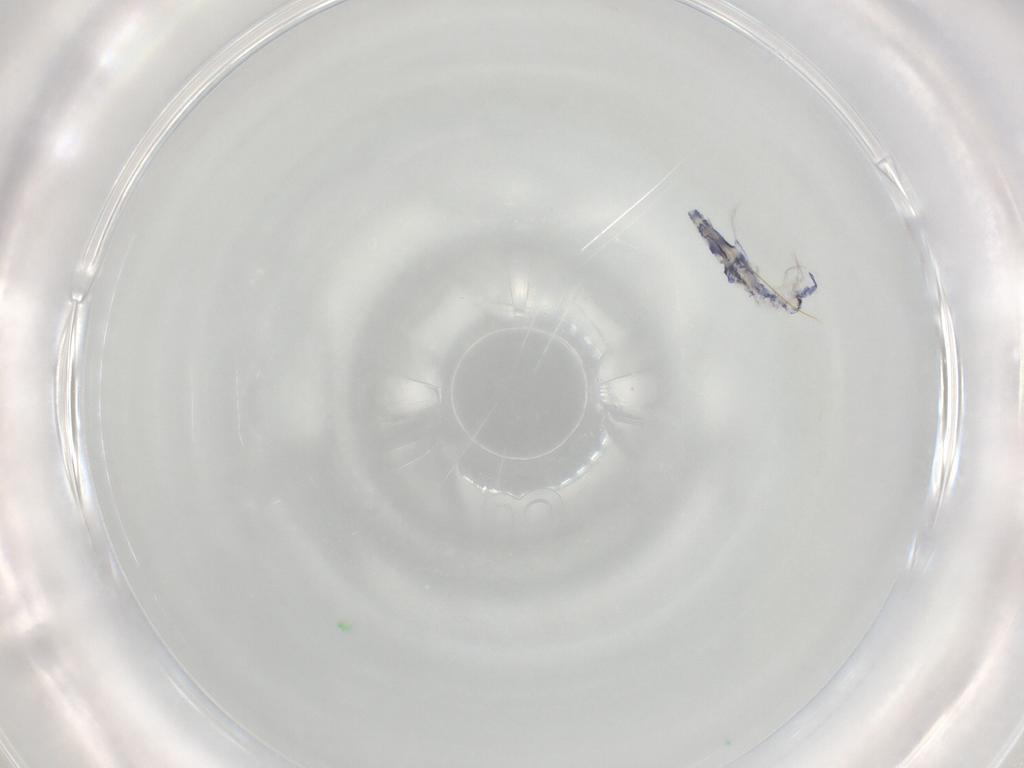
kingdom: Animalia
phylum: Arthropoda
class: Collembola
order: Entomobryomorpha
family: Entomobryidae
